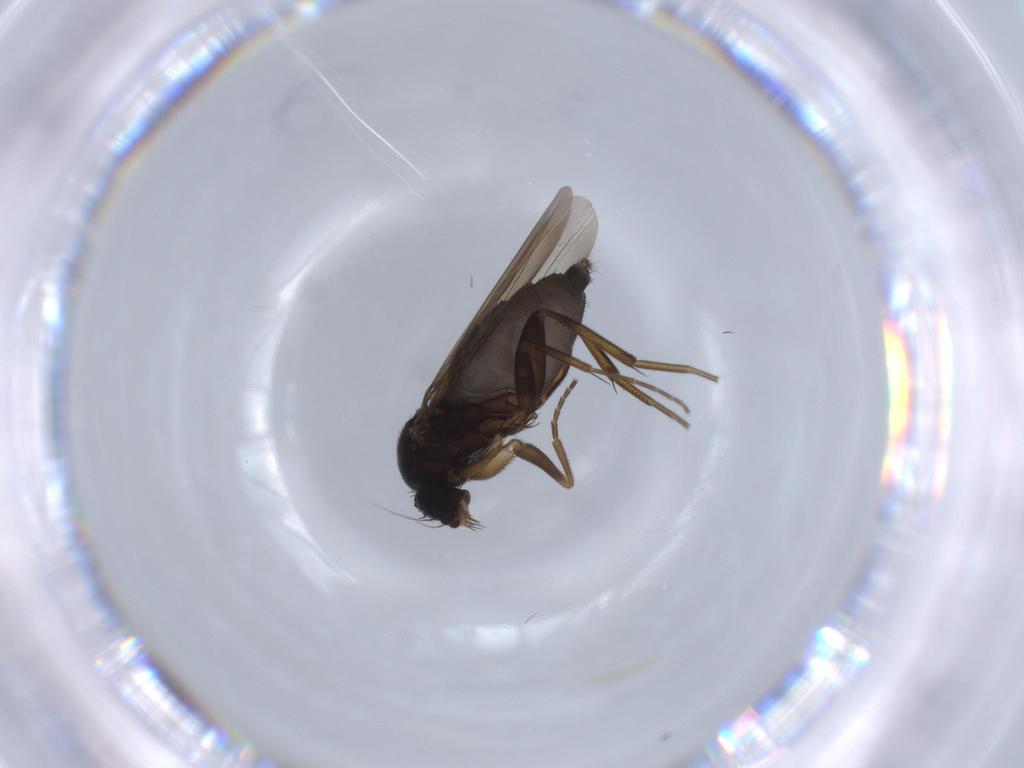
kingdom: Animalia
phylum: Arthropoda
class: Insecta
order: Diptera
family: Phoridae
